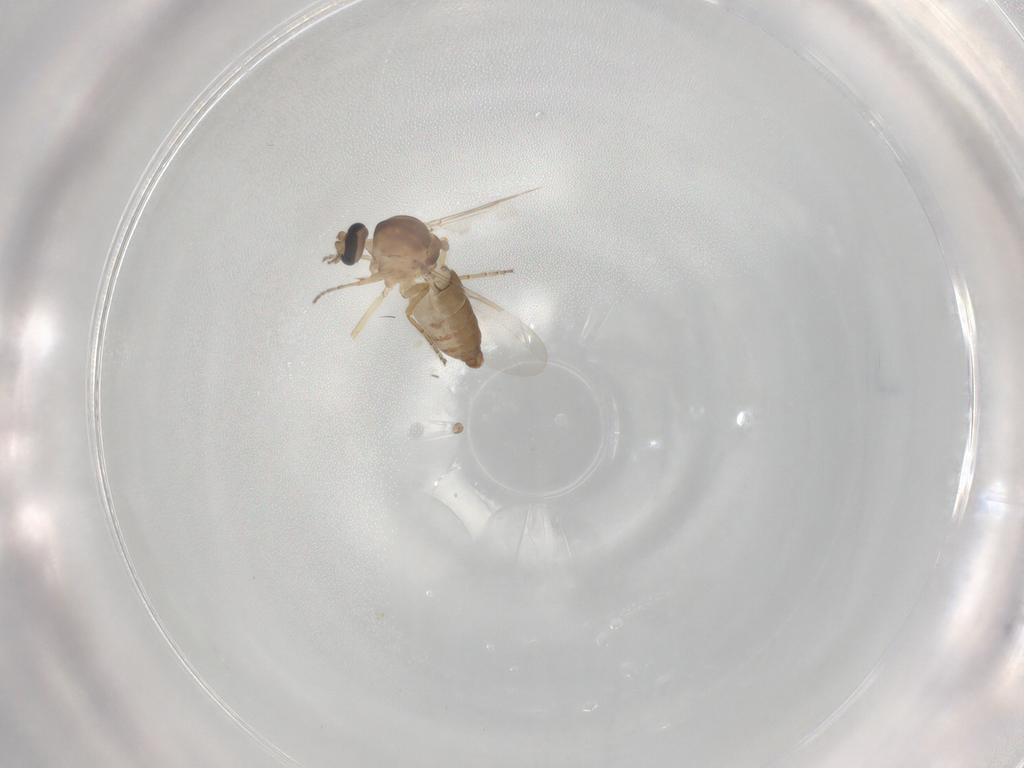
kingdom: Animalia
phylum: Arthropoda
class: Insecta
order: Diptera
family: Ceratopogonidae
